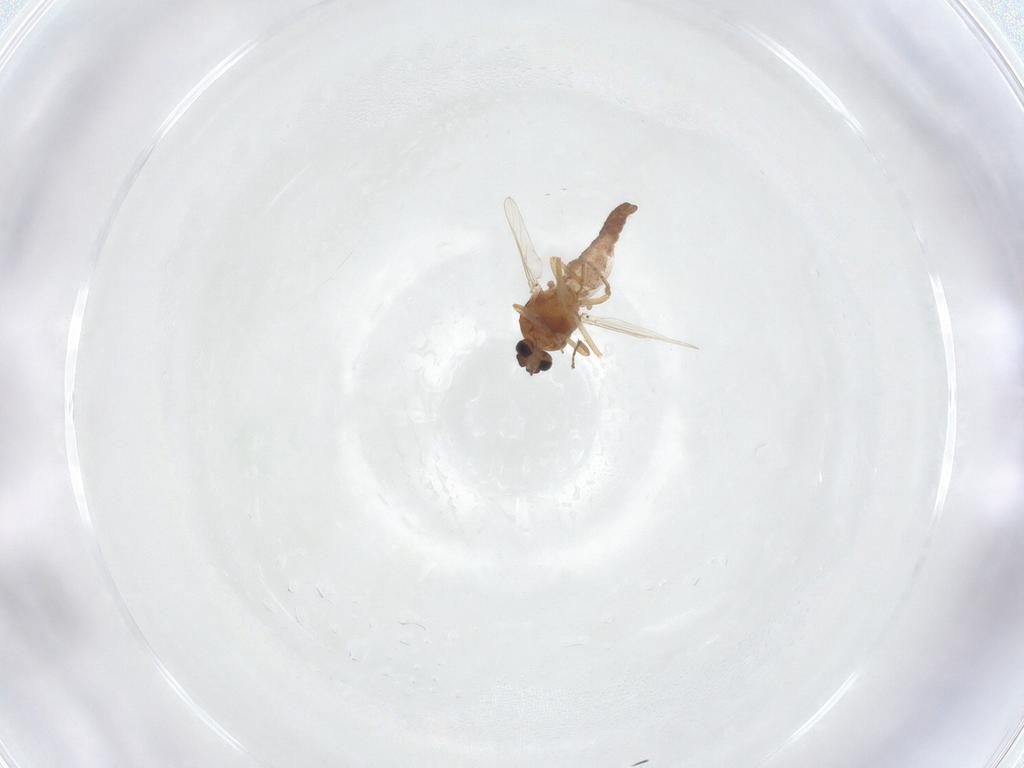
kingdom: Animalia
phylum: Arthropoda
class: Insecta
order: Diptera
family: Ceratopogonidae
